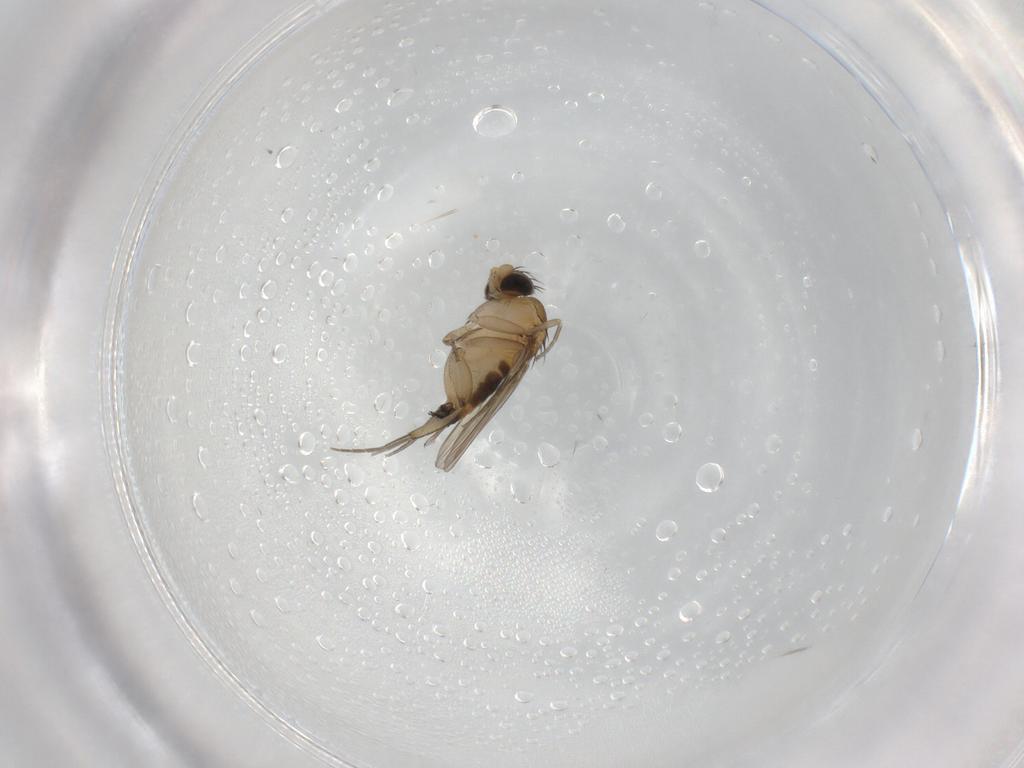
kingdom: Animalia
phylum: Arthropoda
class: Insecta
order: Diptera
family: Phoridae
